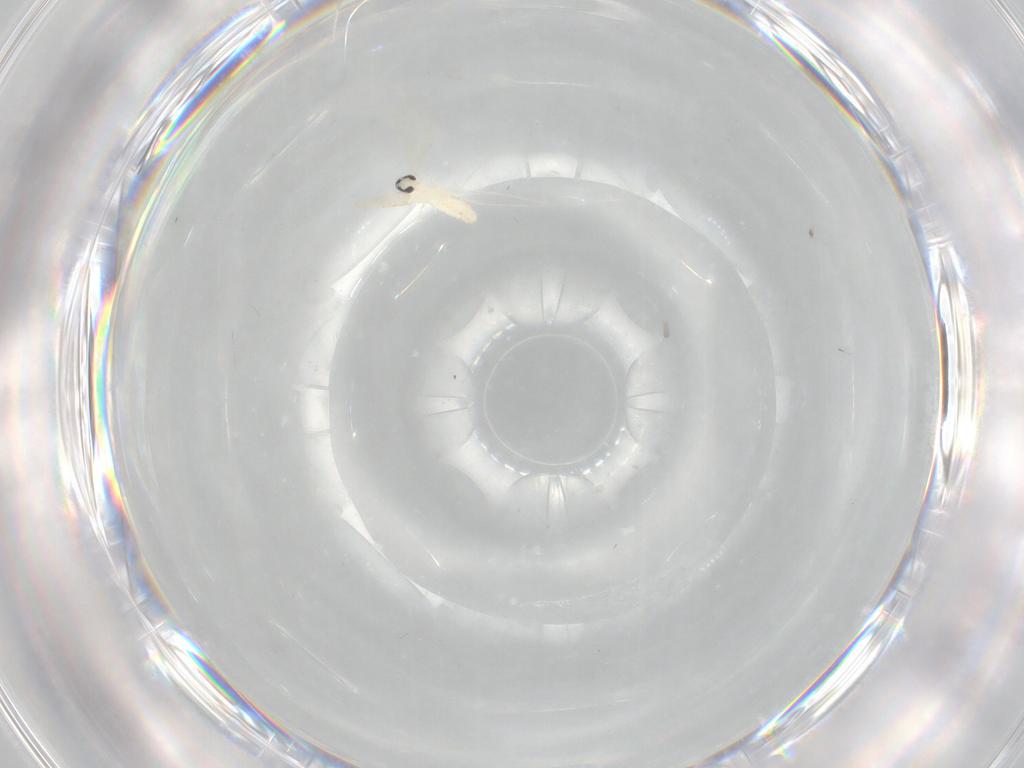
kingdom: Animalia
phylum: Arthropoda
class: Insecta
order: Diptera
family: Cecidomyiidae
